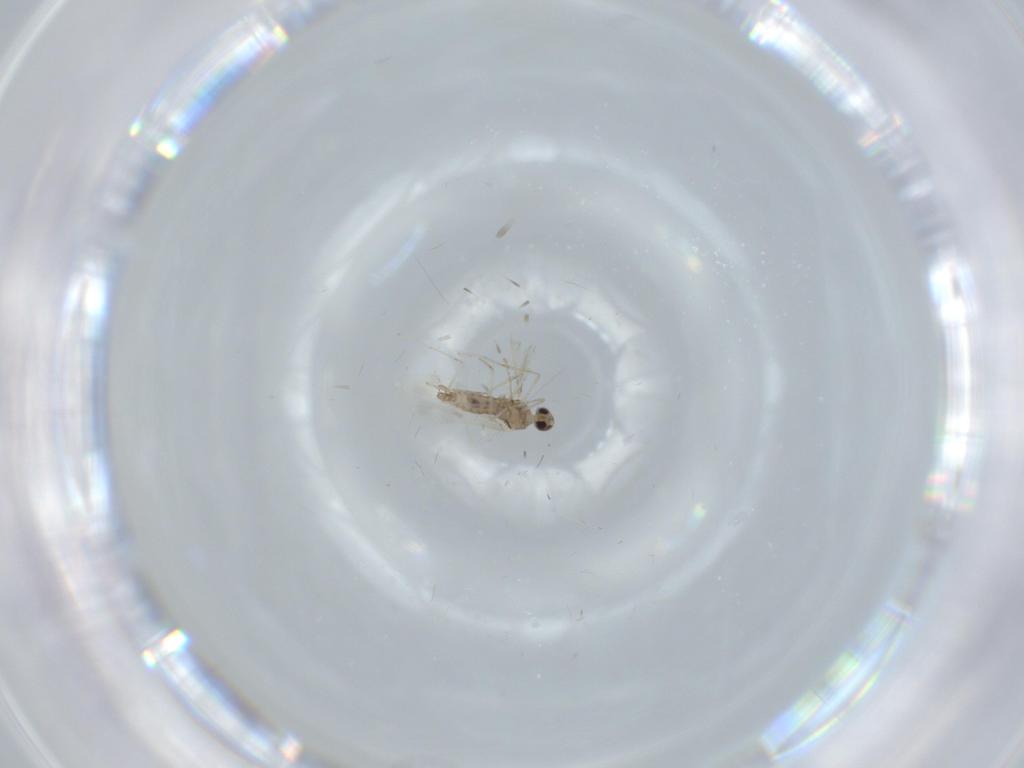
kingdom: Animalia
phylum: Arthropoda
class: Insecta
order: Diptera
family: Cecidomyiidae
